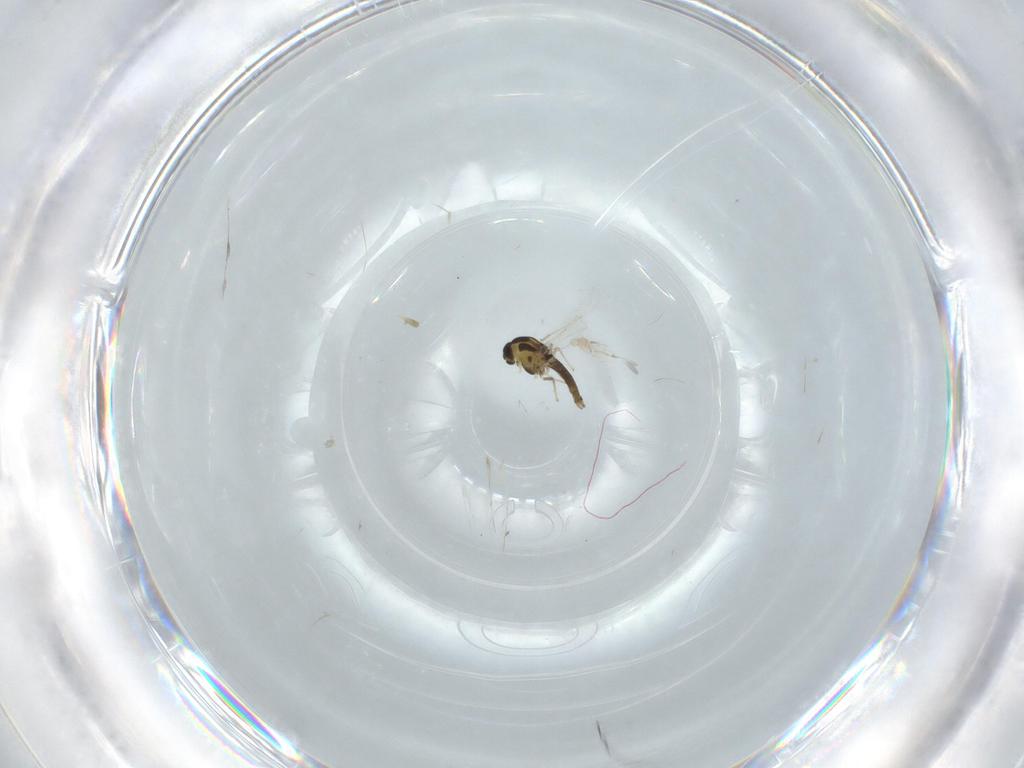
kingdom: Animalia
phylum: Arthropoda
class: Insecta
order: Diptera
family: Chironomidae
